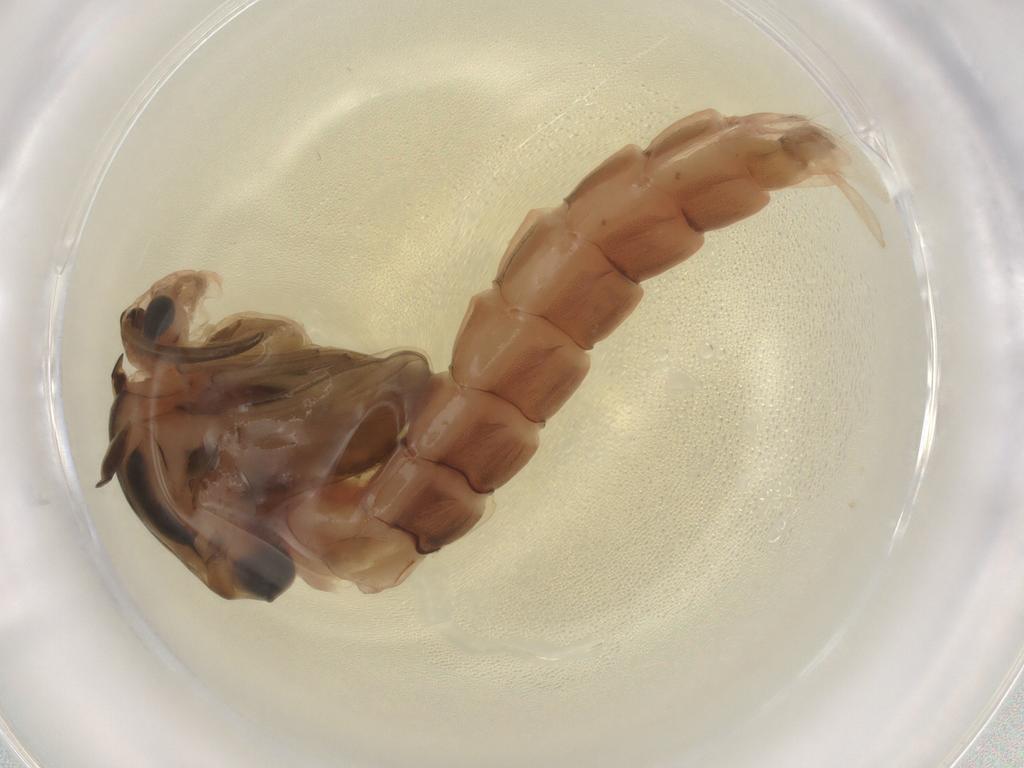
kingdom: Animalia
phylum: Arthropoda
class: Insecta
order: Diptera
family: Chironomidae
